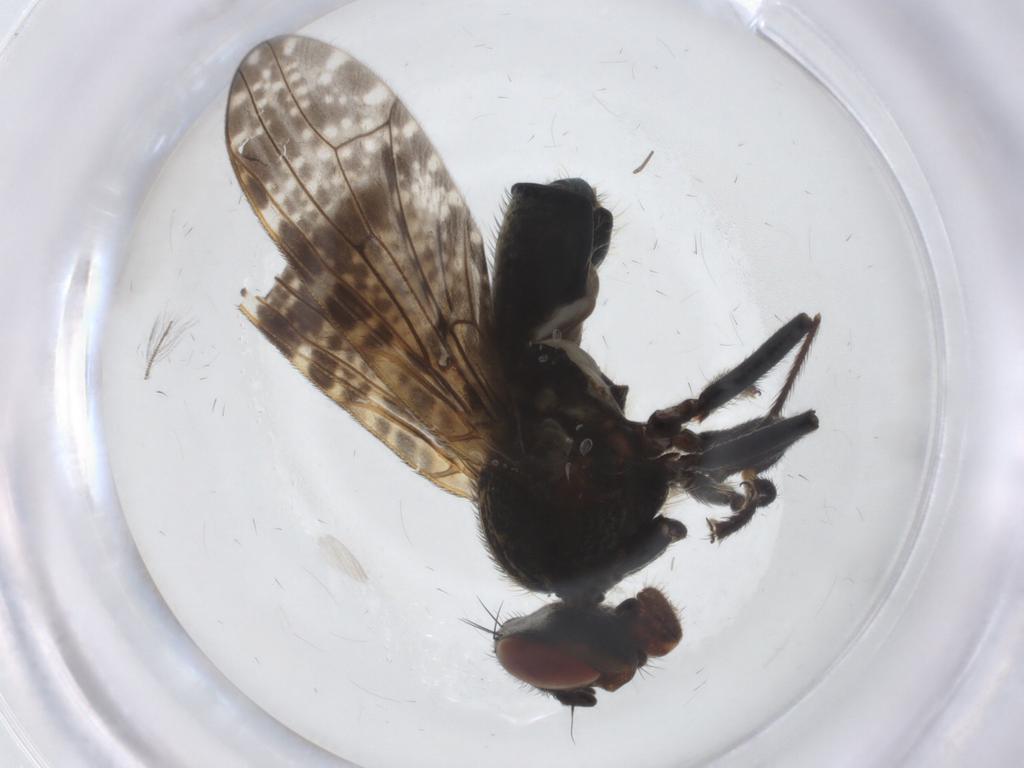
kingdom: Animalia
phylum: Arthropoda
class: Insecta
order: Diptera
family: Platystomatidae
